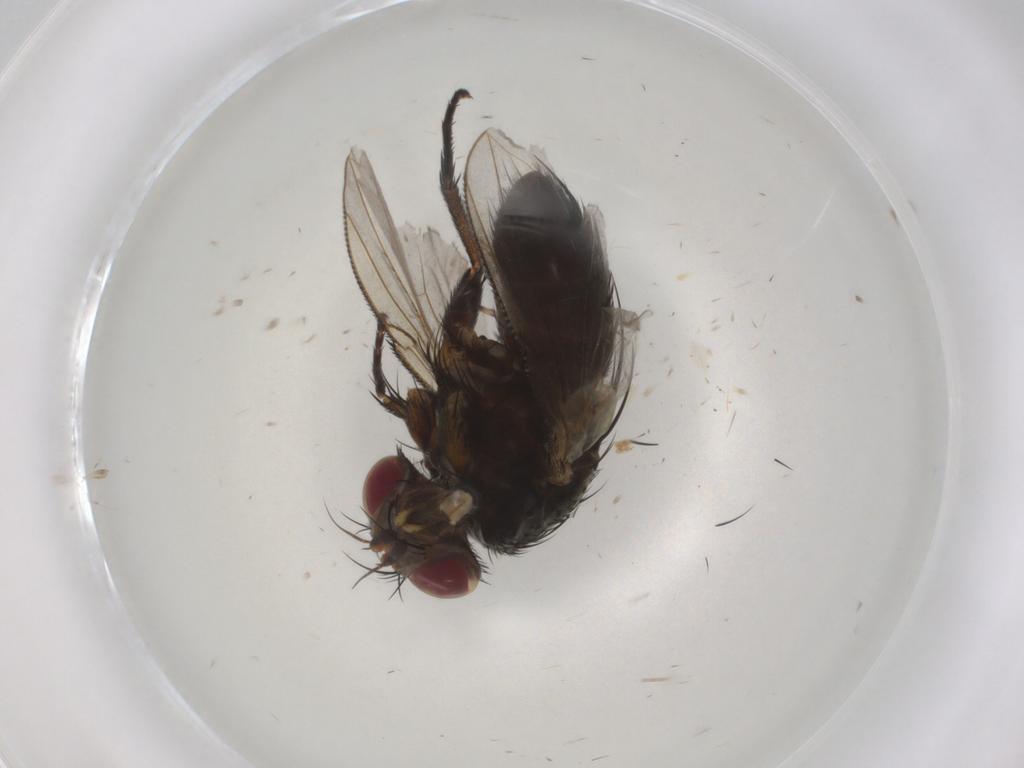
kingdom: Animalia
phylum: Arthropoda
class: Insecta
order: Diptera
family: Tachinidae
